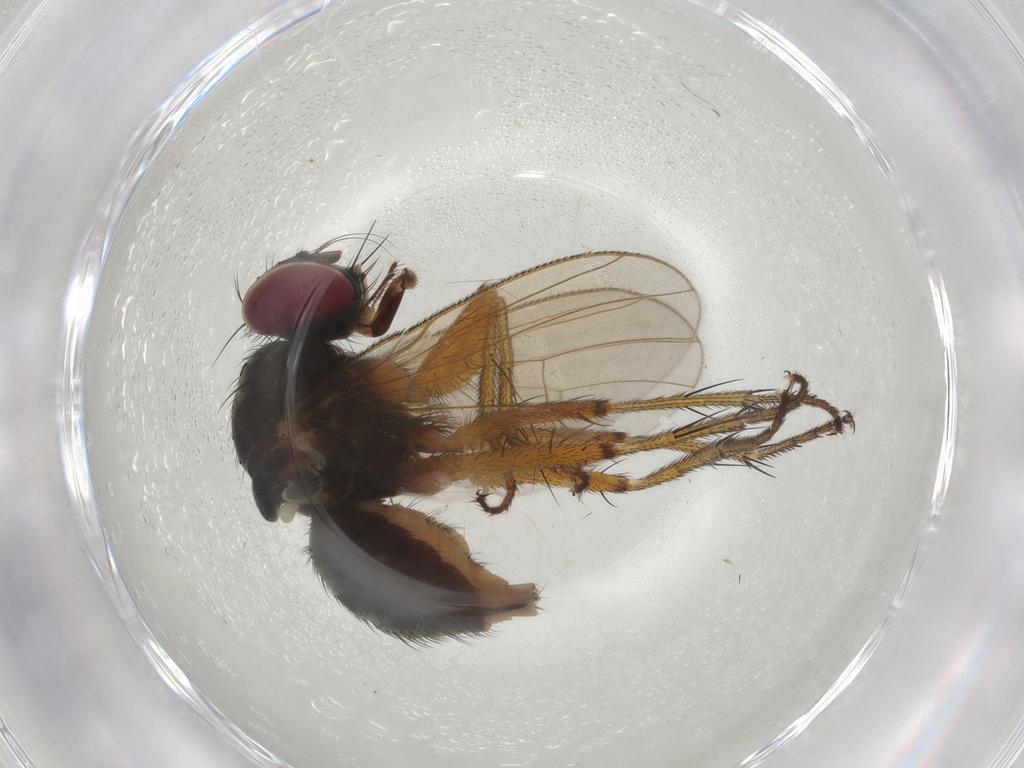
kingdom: Animalia
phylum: Arthropoda
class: Insecta
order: Diptera
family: Muscidae
